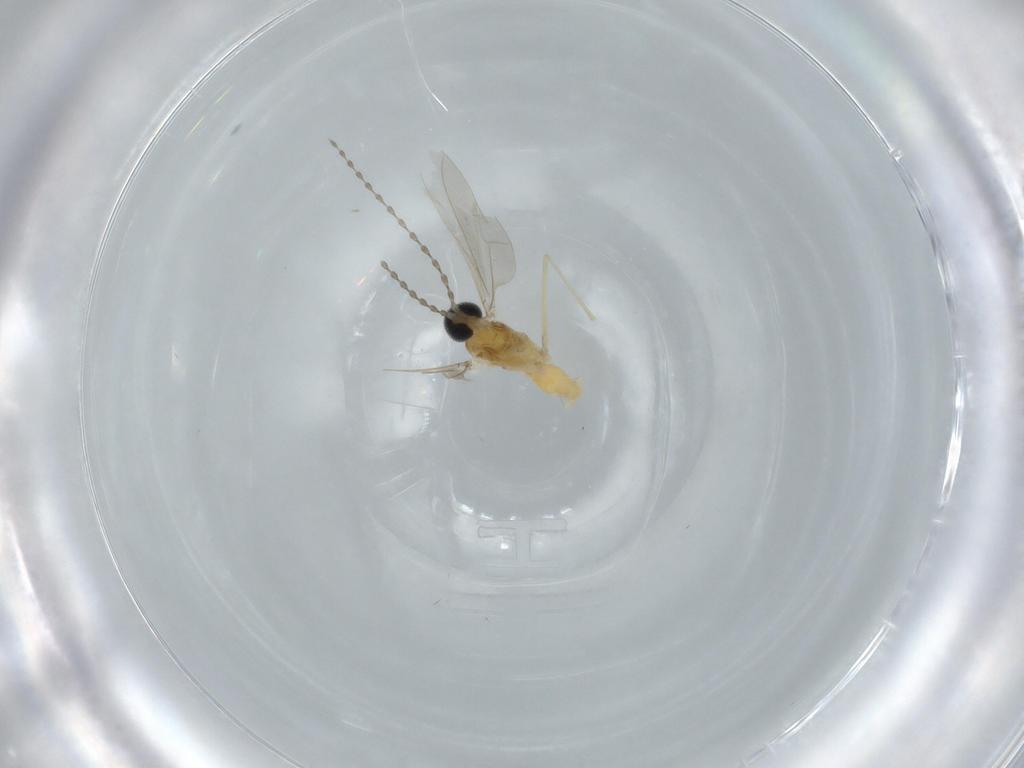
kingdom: Animalia
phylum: Arthropoda
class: Insecta
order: Diptera
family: Cecidomyiidae
